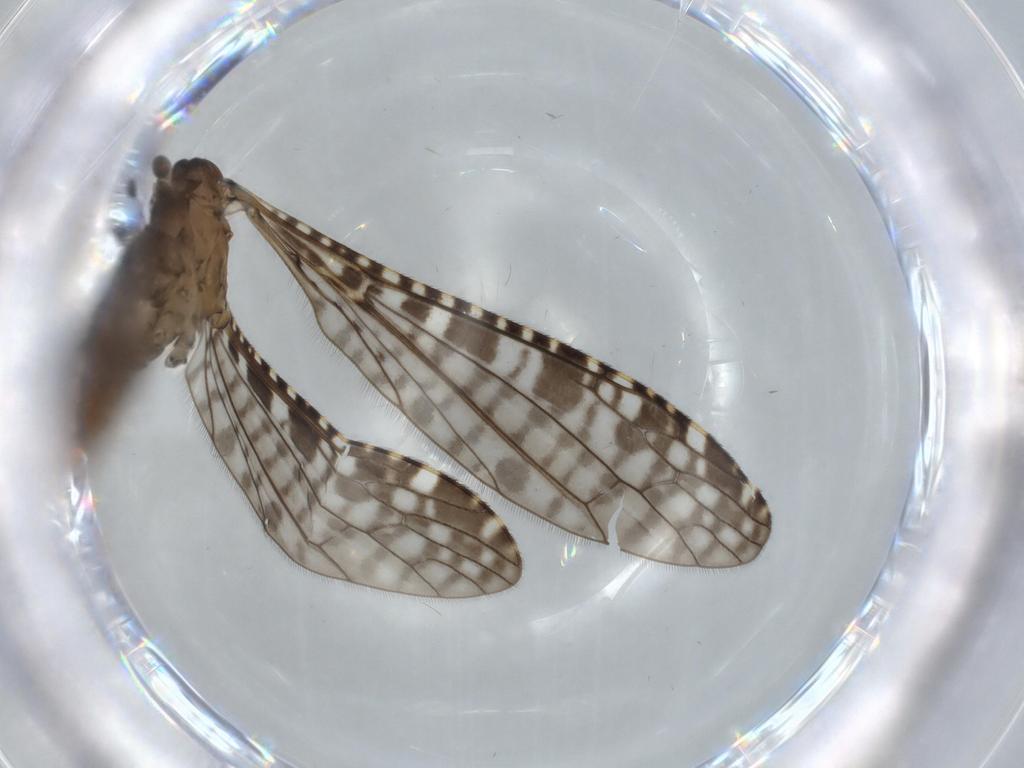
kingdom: Animalia
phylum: Arthropoda
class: Insecta
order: Diptera
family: Limoniidae
